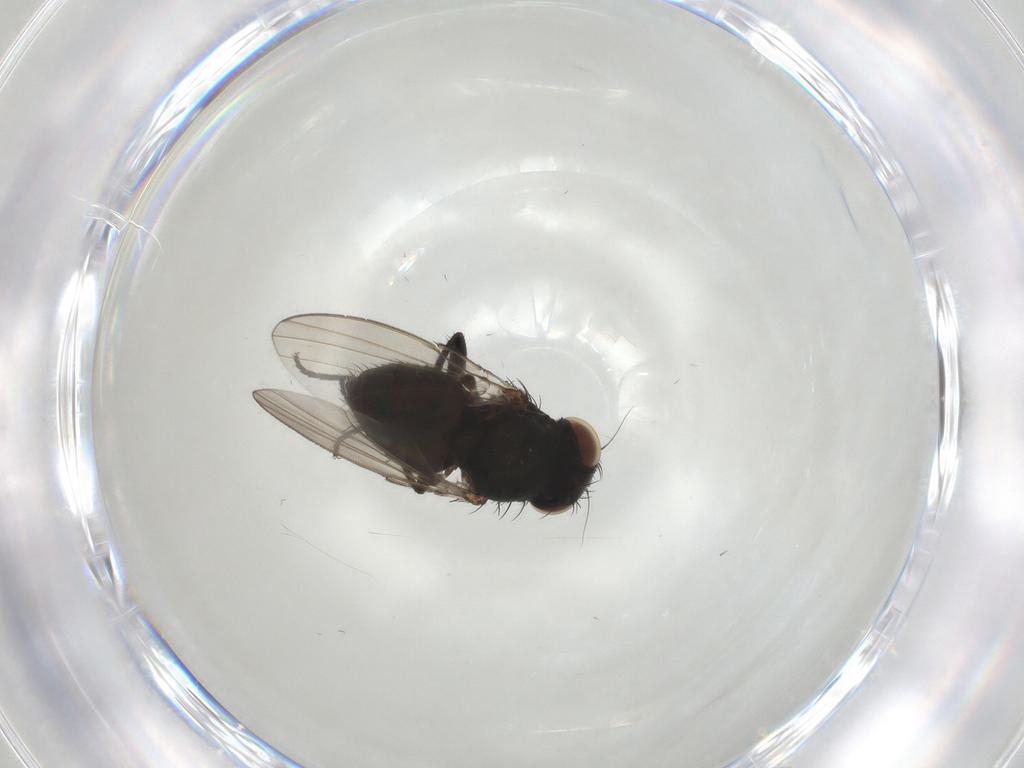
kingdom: Animalia
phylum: Arthropoda
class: Insecta
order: Diptera
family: Milichiidae
